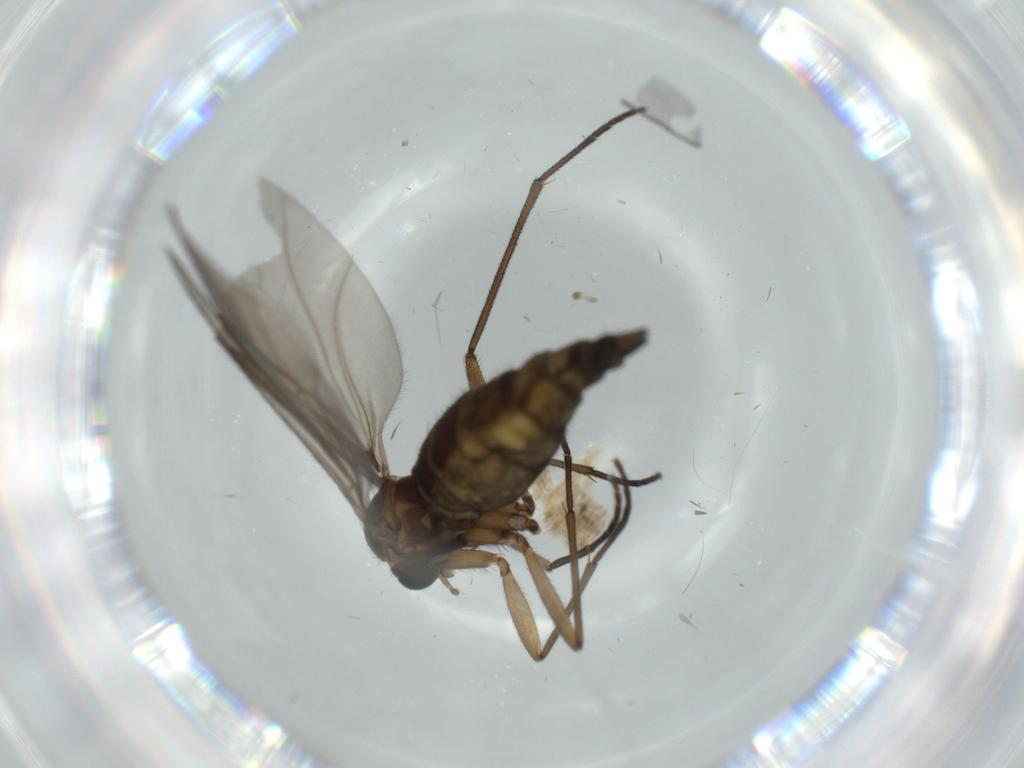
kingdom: Animalia
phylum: Arthropoda
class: Insecta
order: Diptera
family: Sciaridae
